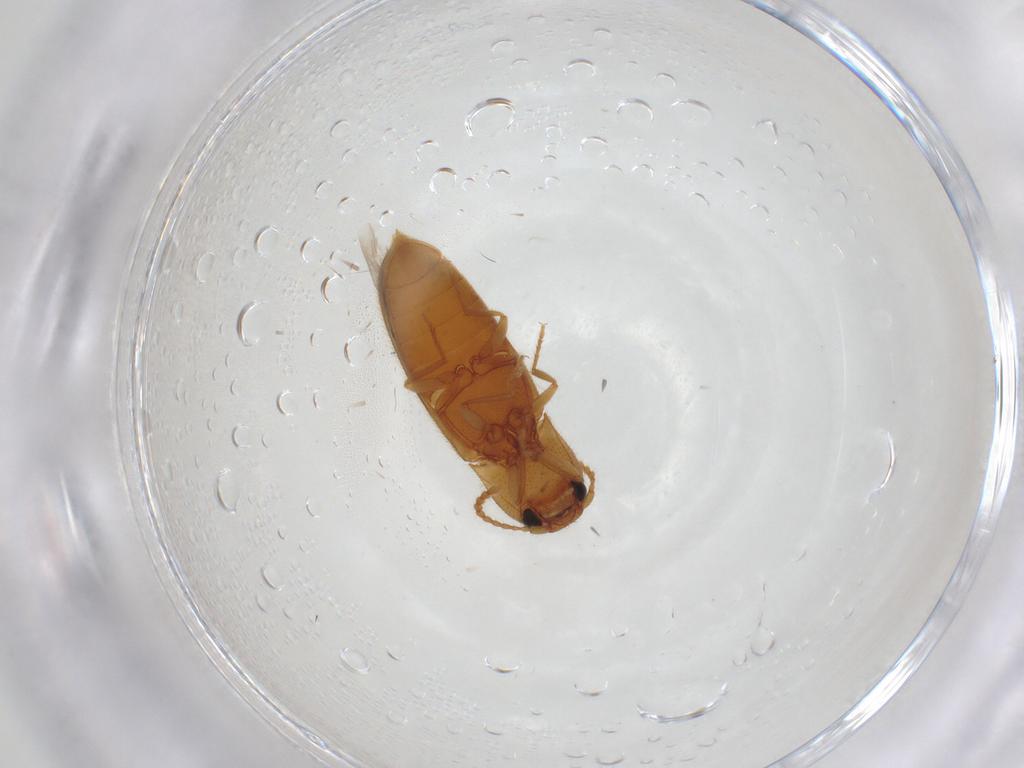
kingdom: Animalia
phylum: Arthropoda
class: Insecta
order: Coleoptera
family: Elateridae
